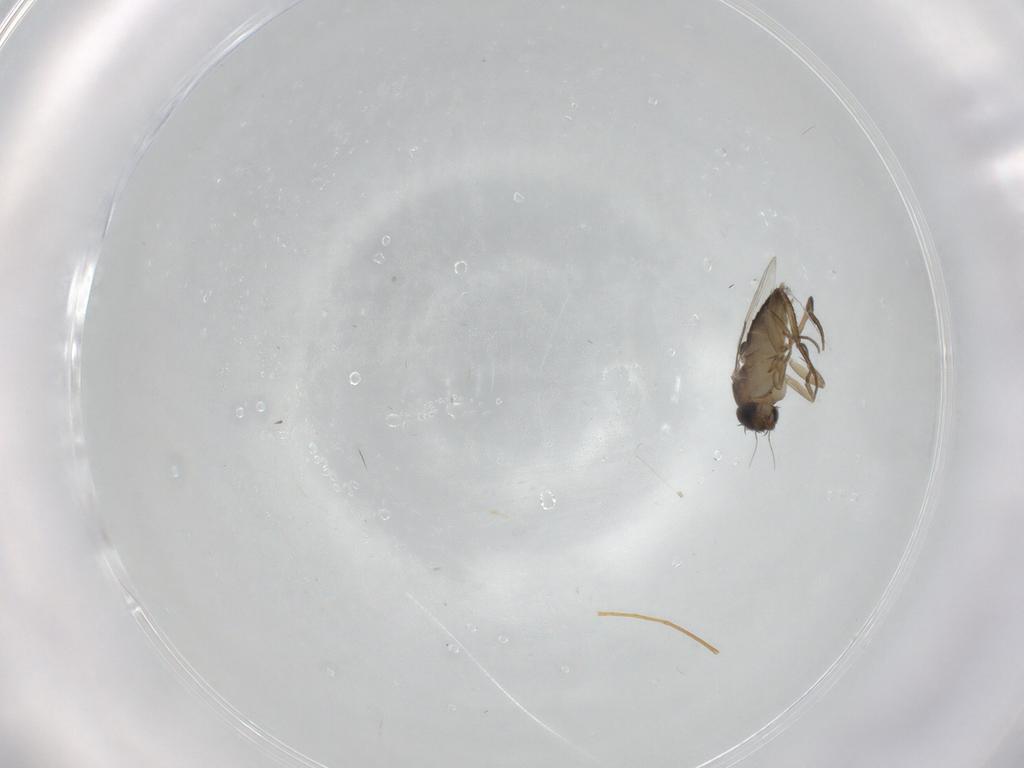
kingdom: Animalia
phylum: Arthropoda
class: Insecta
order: Diptera
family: Phoridae
